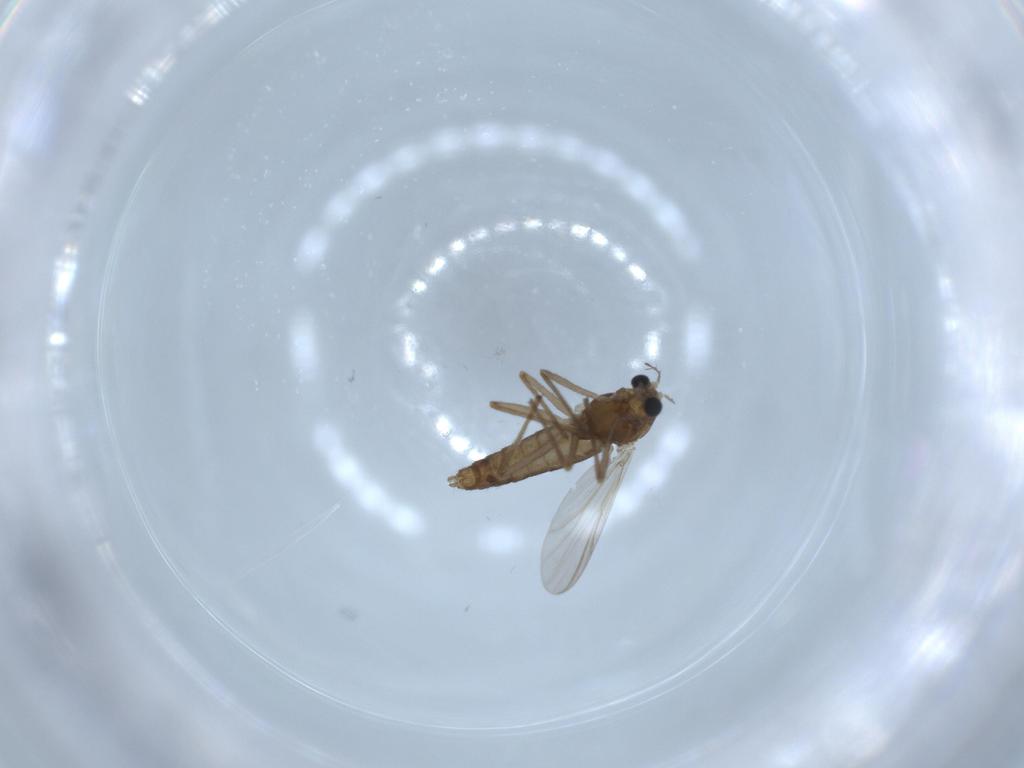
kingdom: Animalia
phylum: Arthropoda
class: Insecta
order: Diptera
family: Chironomidae
